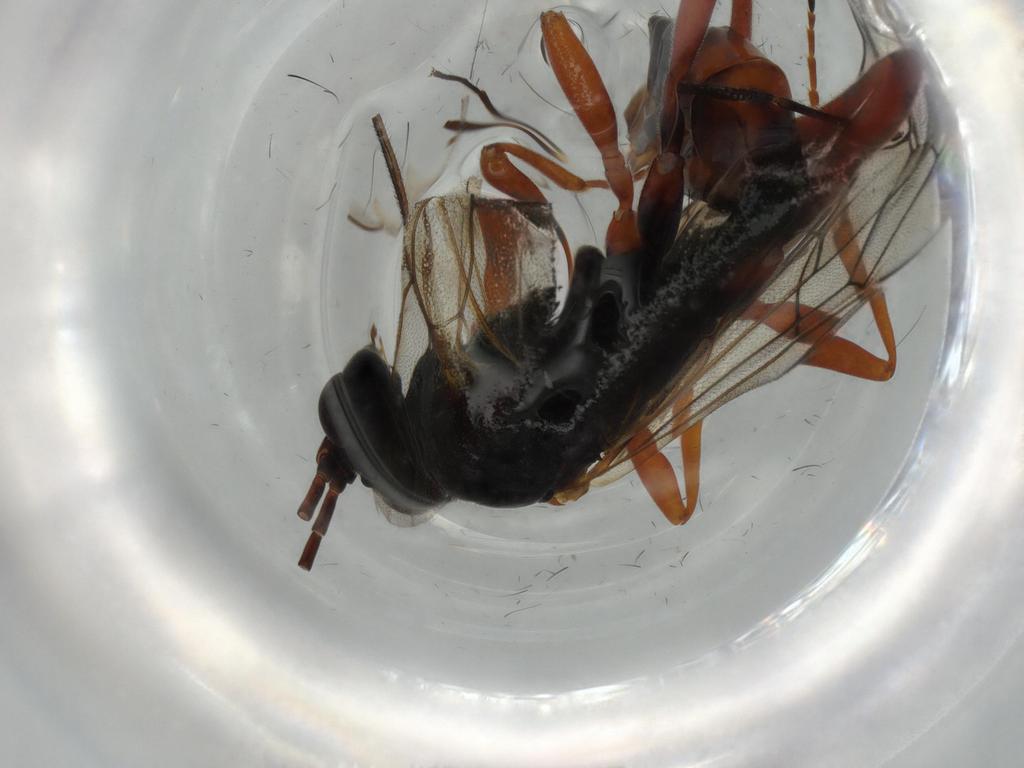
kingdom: Animalia
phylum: Arthropoda
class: Insecta
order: Hymenoptera
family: Ichneumonidae
